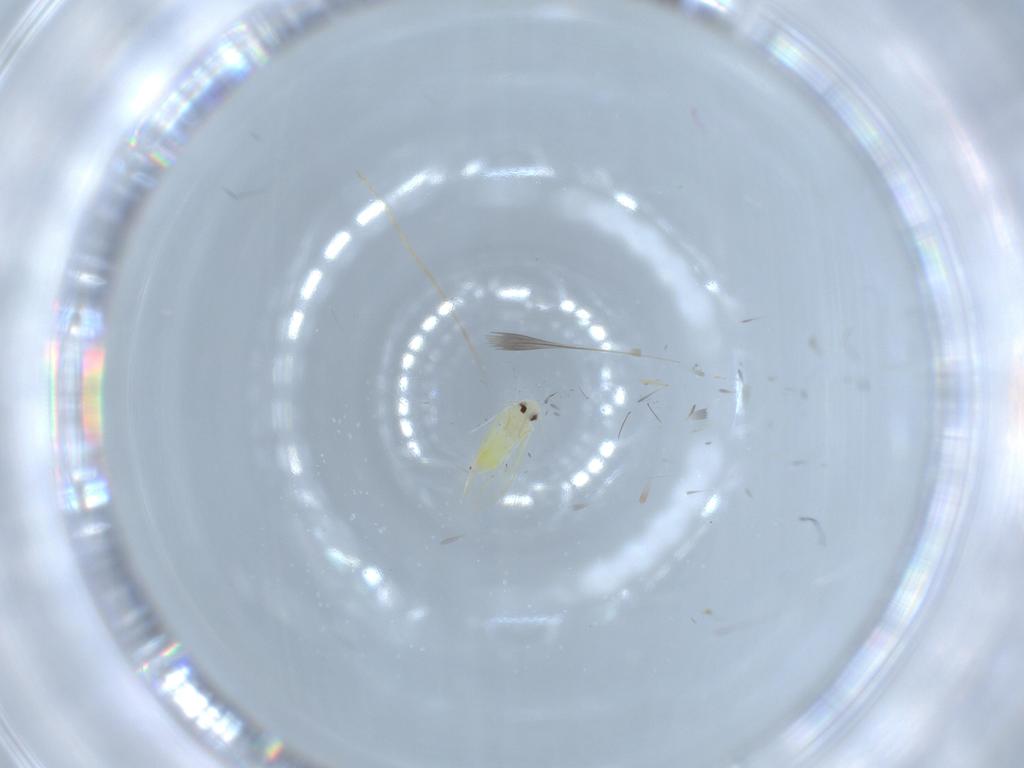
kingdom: Animalia
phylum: Arthropoda
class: Insecta
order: Hemiptera
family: Aleyrodidae
